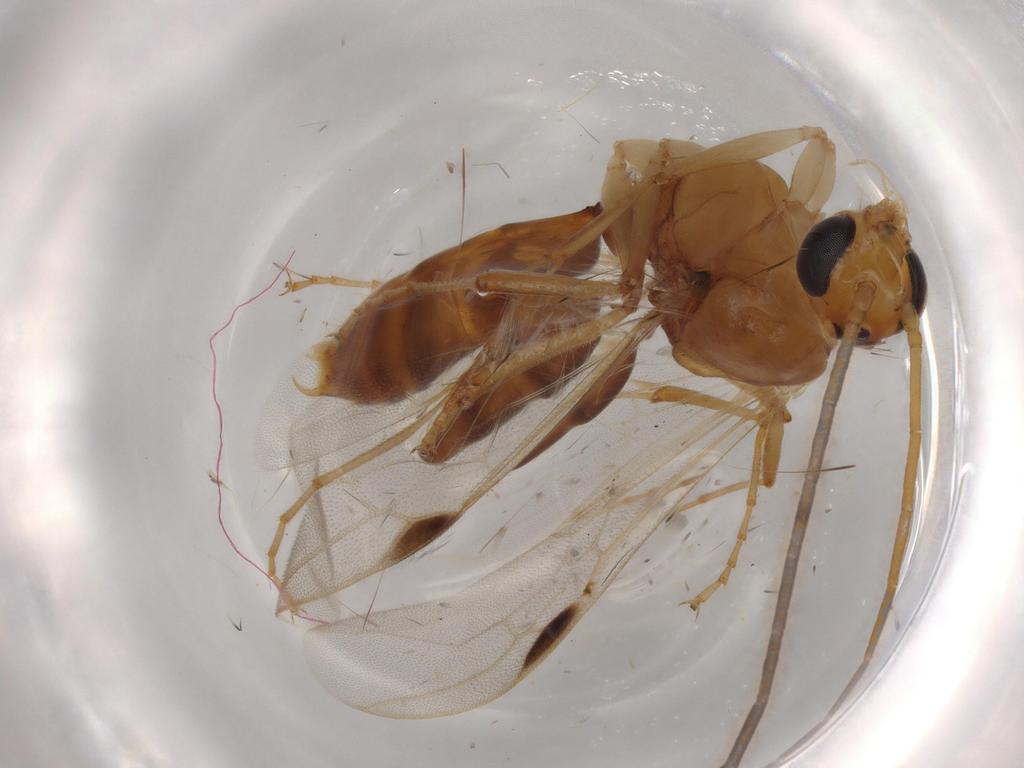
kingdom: Animalia
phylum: Arthropoda
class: Insecta
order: Hymenoptera
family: Formicidae
